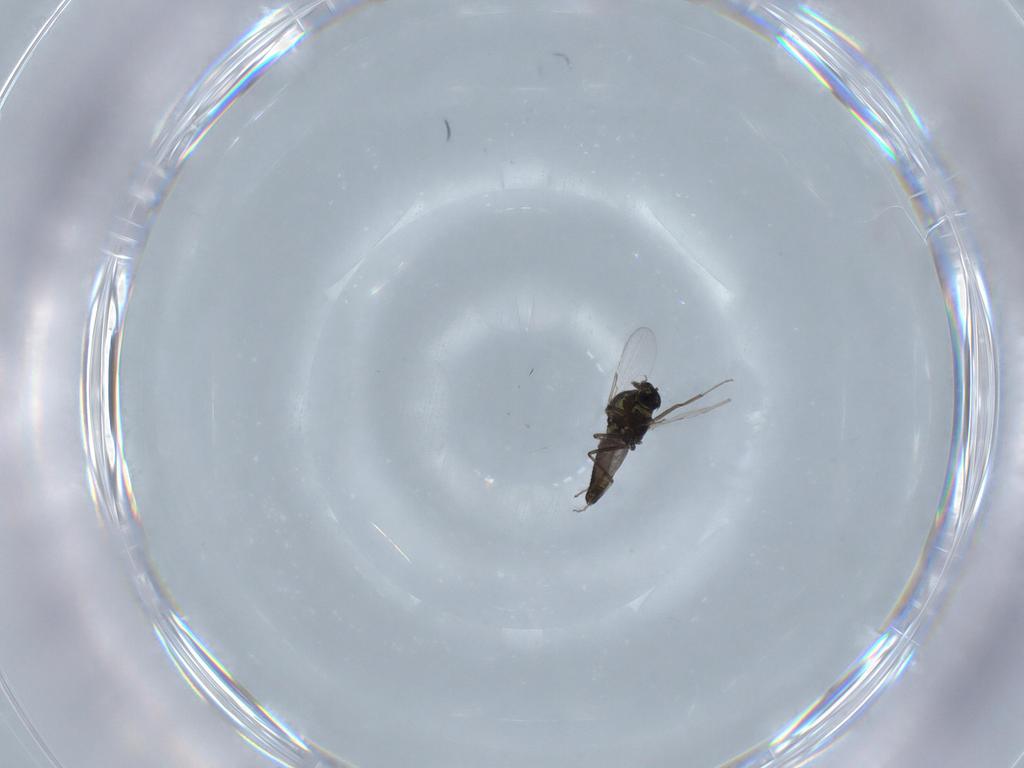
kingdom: Animalia
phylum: Arthropoda
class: Insecta
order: Diptera
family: Ceratopogonidae
